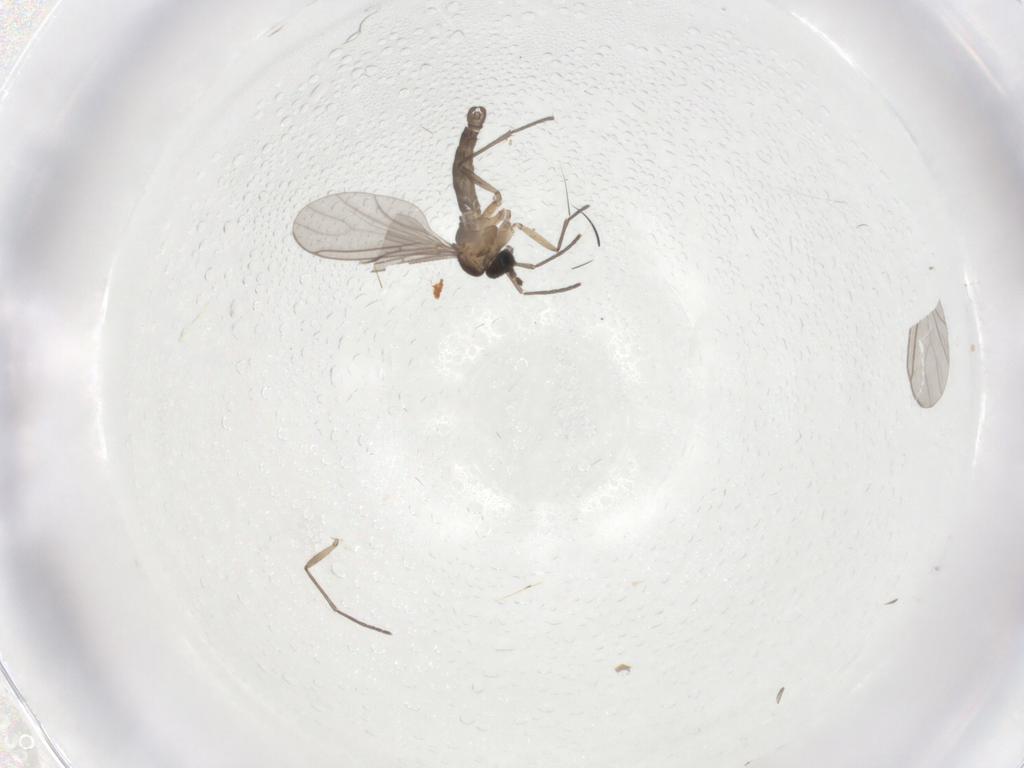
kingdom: Animalia
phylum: Arthropoda
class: Insecta
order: Diptera
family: Sciaridae
